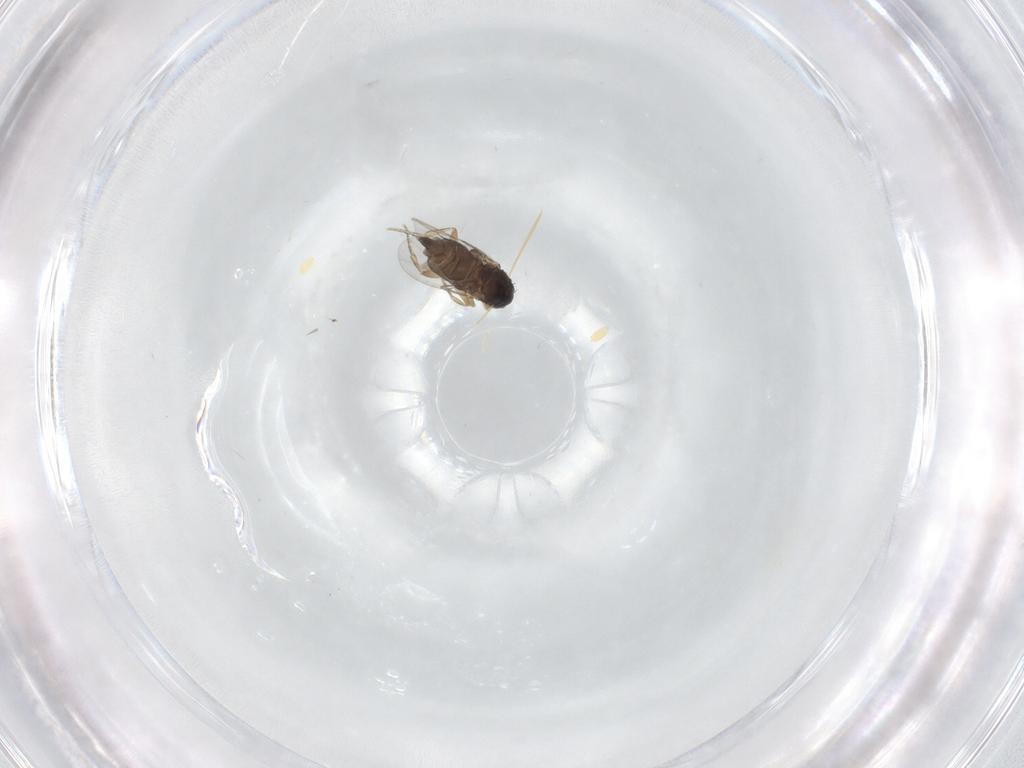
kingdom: Animalia
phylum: Arthropoda
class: Insecta
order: Diptera
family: Phoridae
